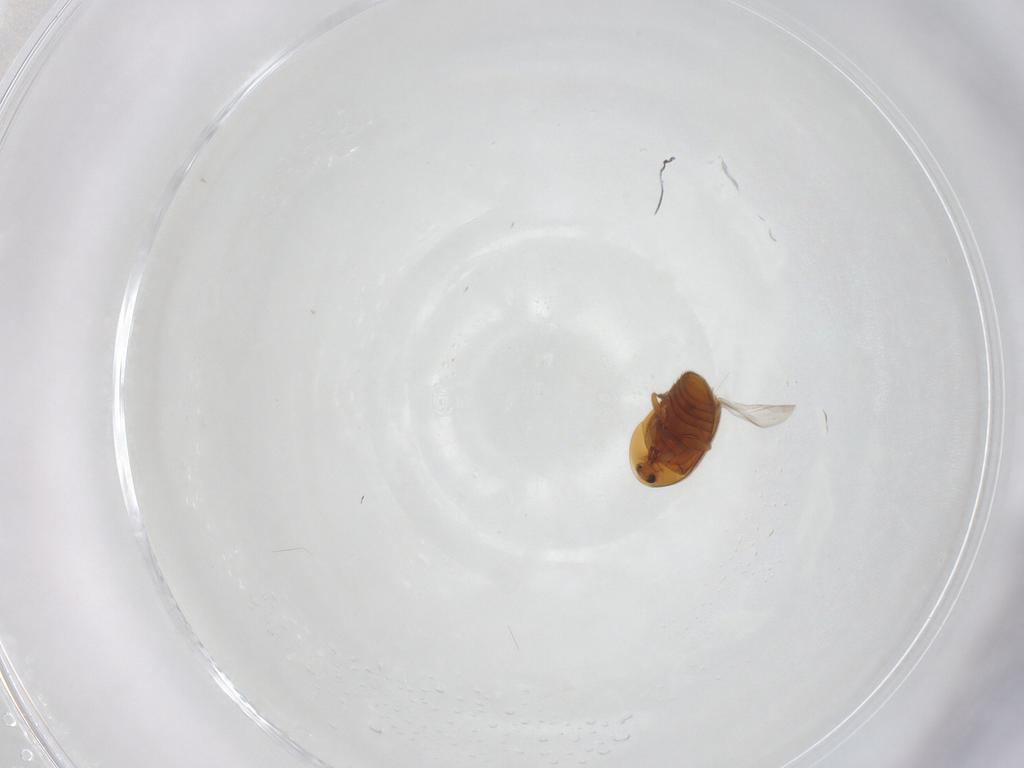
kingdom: Animalia
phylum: Arthropoda
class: Insecta
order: Coleoptera
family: Corylophidae
